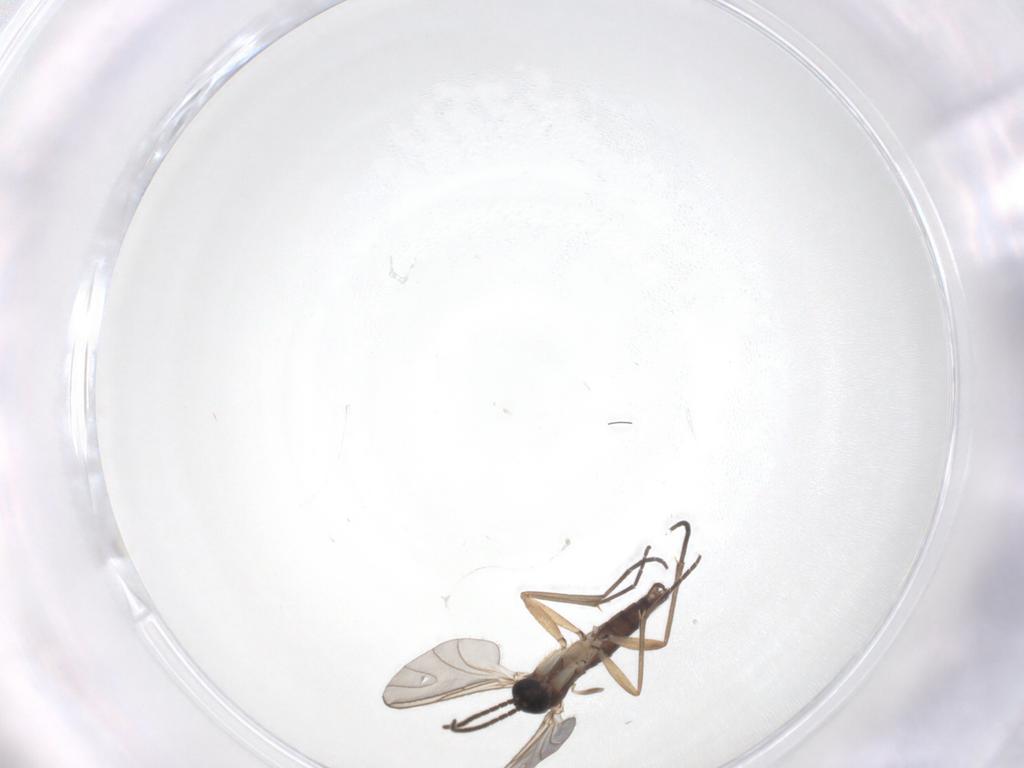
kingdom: Animalia
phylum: Arthropoda
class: Insecta
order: Diptera
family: Sciaridae
